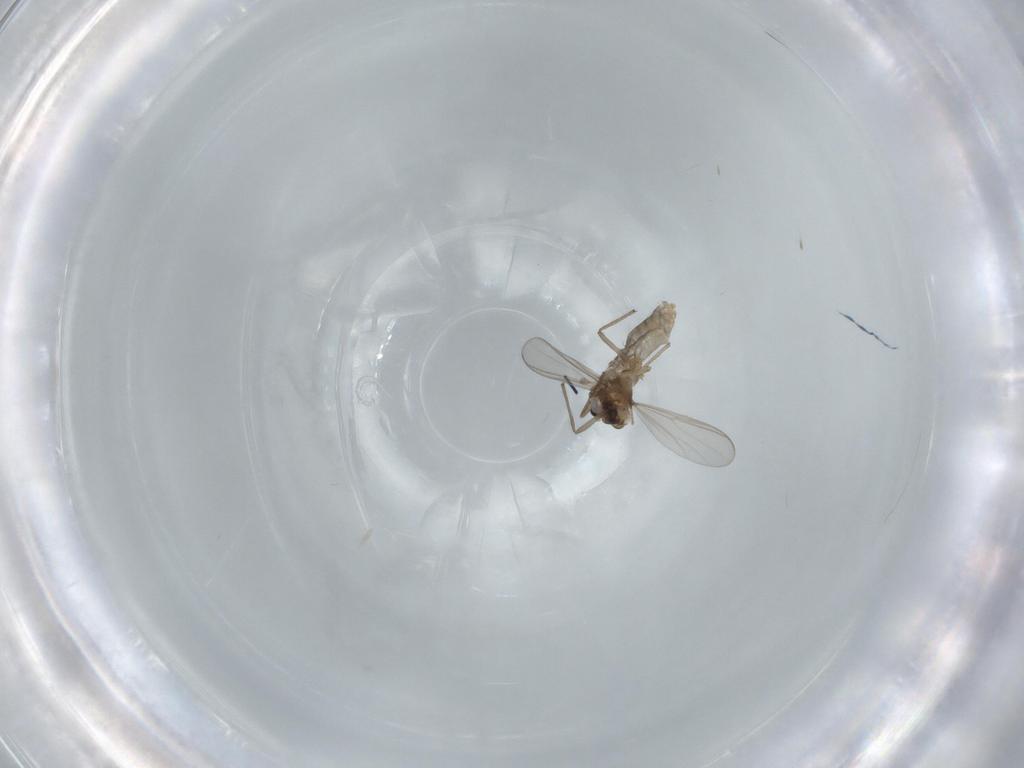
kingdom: Animalia
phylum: Arthropoda
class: Insecta
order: Diptera
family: Chironomidae
